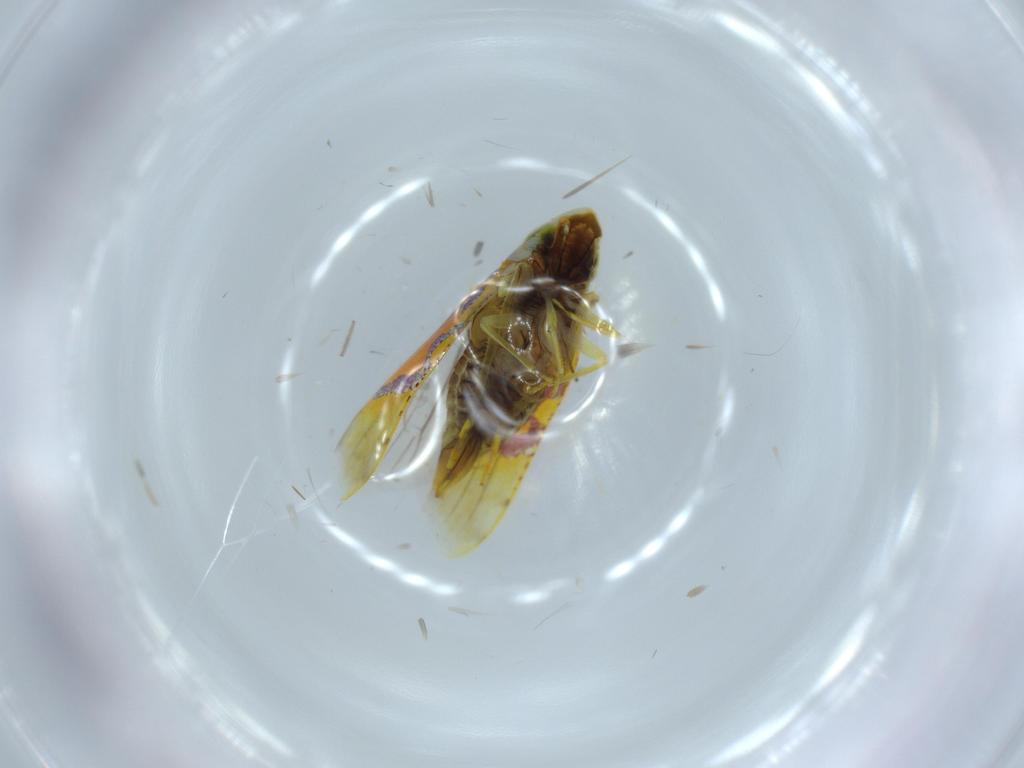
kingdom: Animalia
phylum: Arthropoda
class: Insecta
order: Hemiptera
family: Cicadellidae
